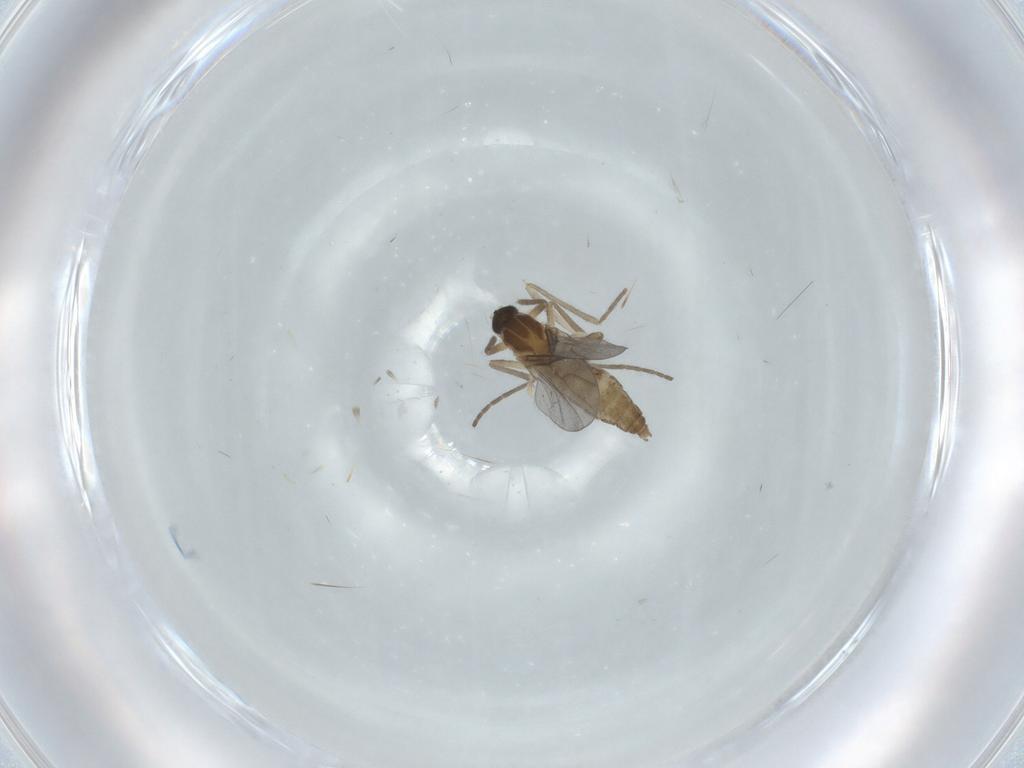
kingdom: Animalia
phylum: Arthropoda
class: Insecta
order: Diptera
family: Cecidomyiidae
